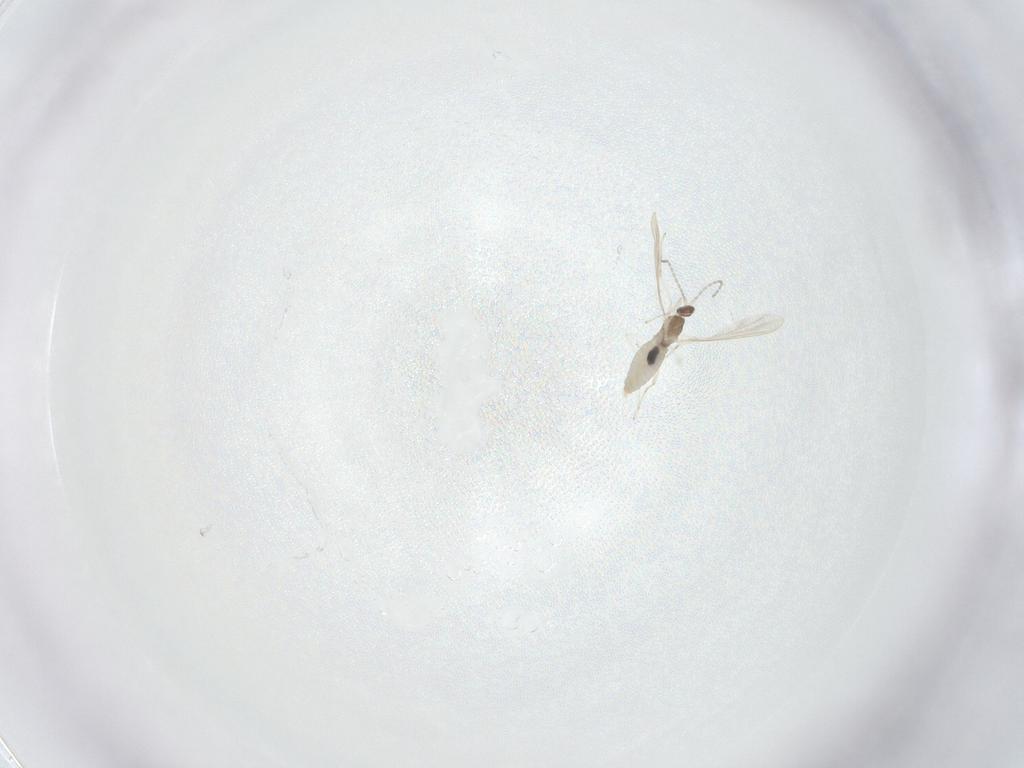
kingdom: Animalia
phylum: Arthropoda
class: Insecta
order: Diptera
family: Cecidomyiidae
